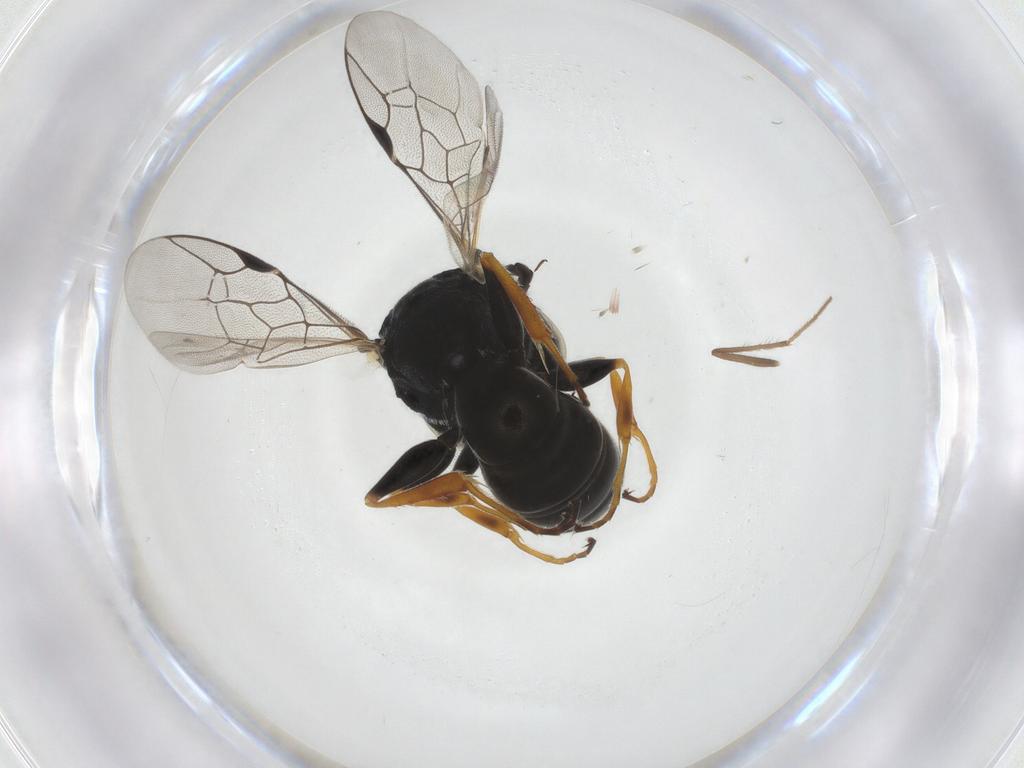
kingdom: Animalia
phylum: Arthropoda
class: Insecta
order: Hymenoptera
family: Pemphredonidae
